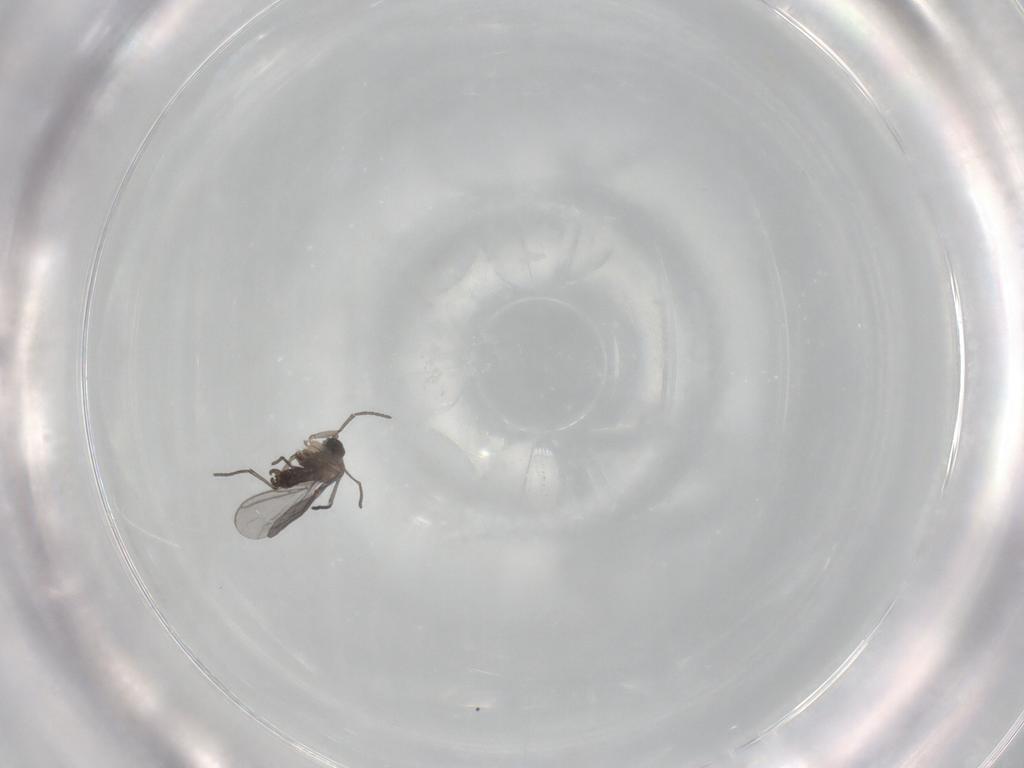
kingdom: Animalia
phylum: Arthropoda
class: Insecta
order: Diptera
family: Sciaridae
